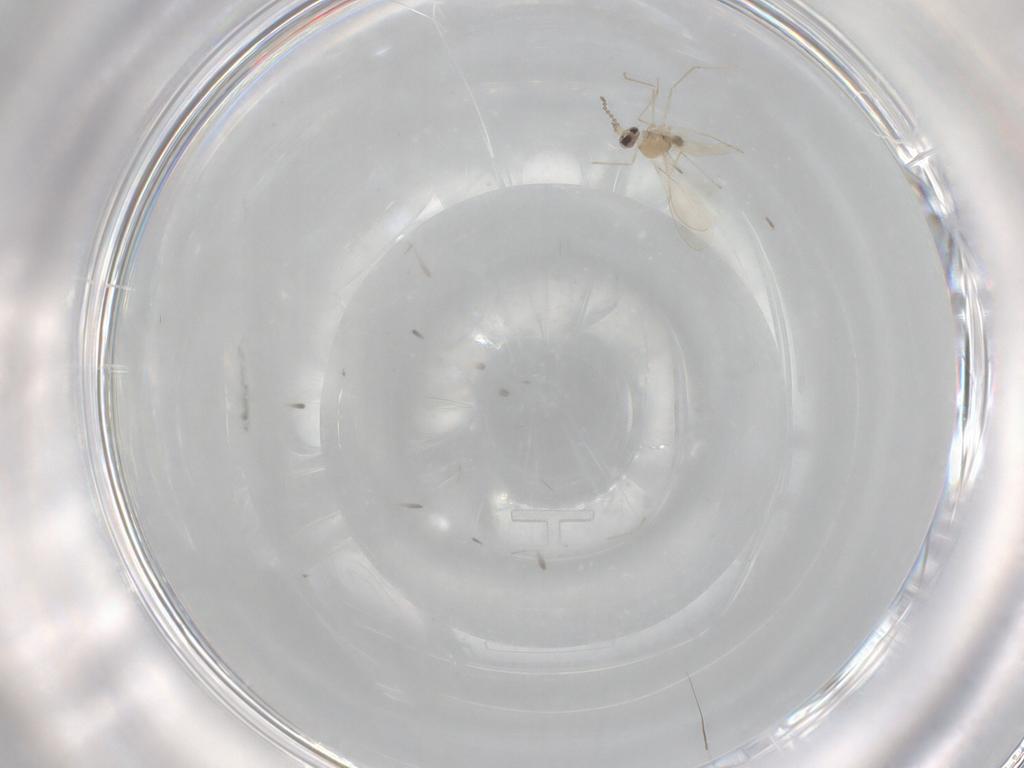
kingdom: Animalia
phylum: Arthropoda
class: Insecta
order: Diptera
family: Cecidomyiidae
